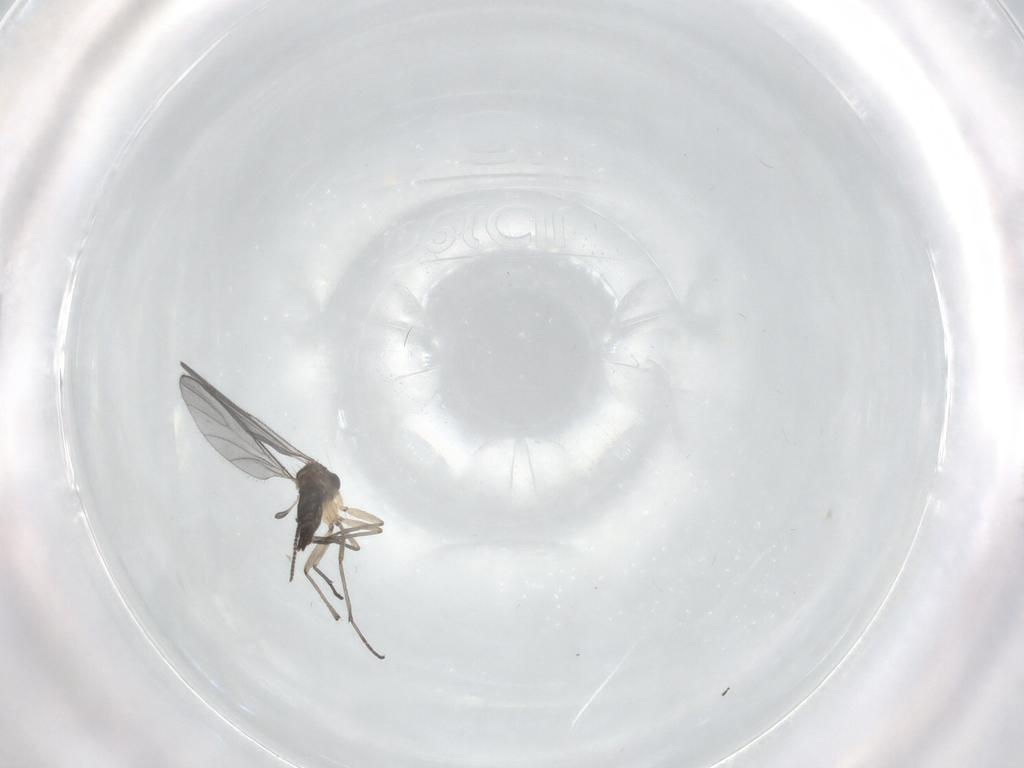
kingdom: Animalia
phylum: Arthropoda
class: Insecta
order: Diptera
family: Sciaridae
